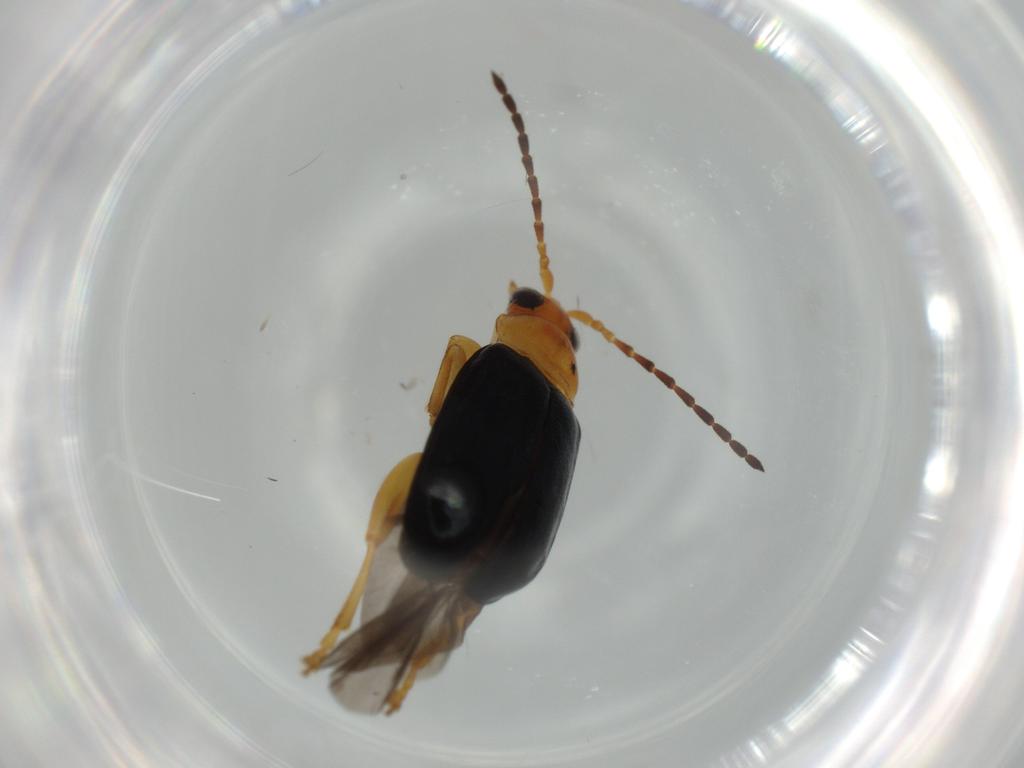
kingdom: Animalia
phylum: Arthropoda
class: Insecta
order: Coleoptera
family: Chrysomelidae
